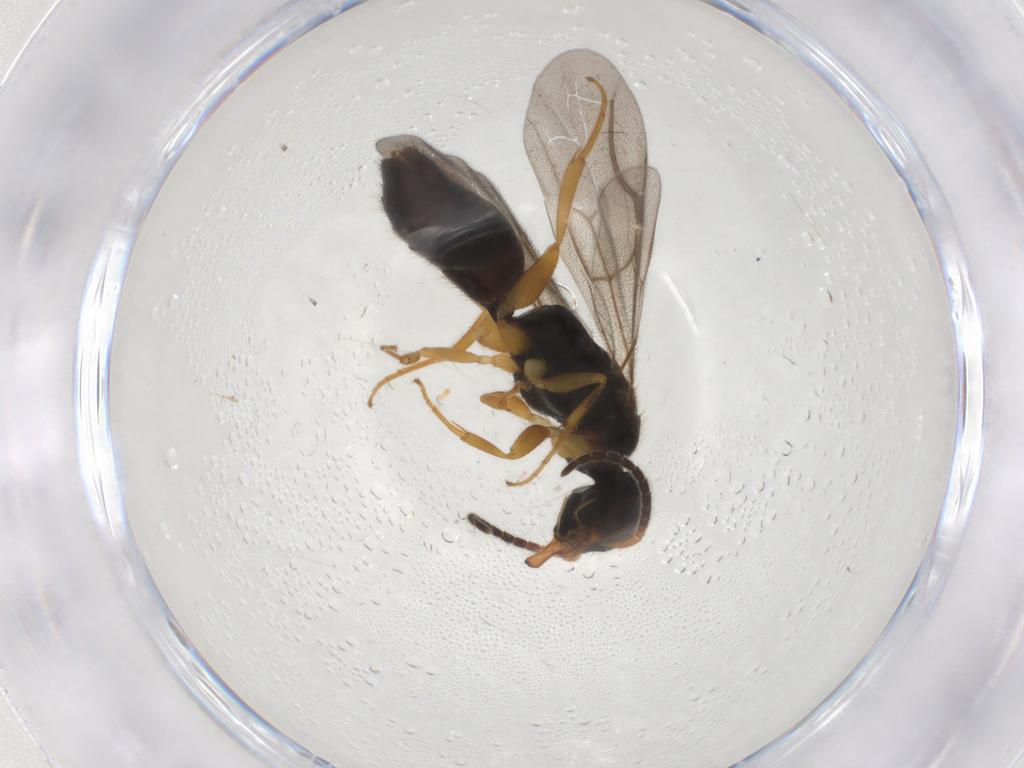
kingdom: Animalia
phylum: Arthropoda
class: Insecta
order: Hymenoptera
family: Bethylidae
